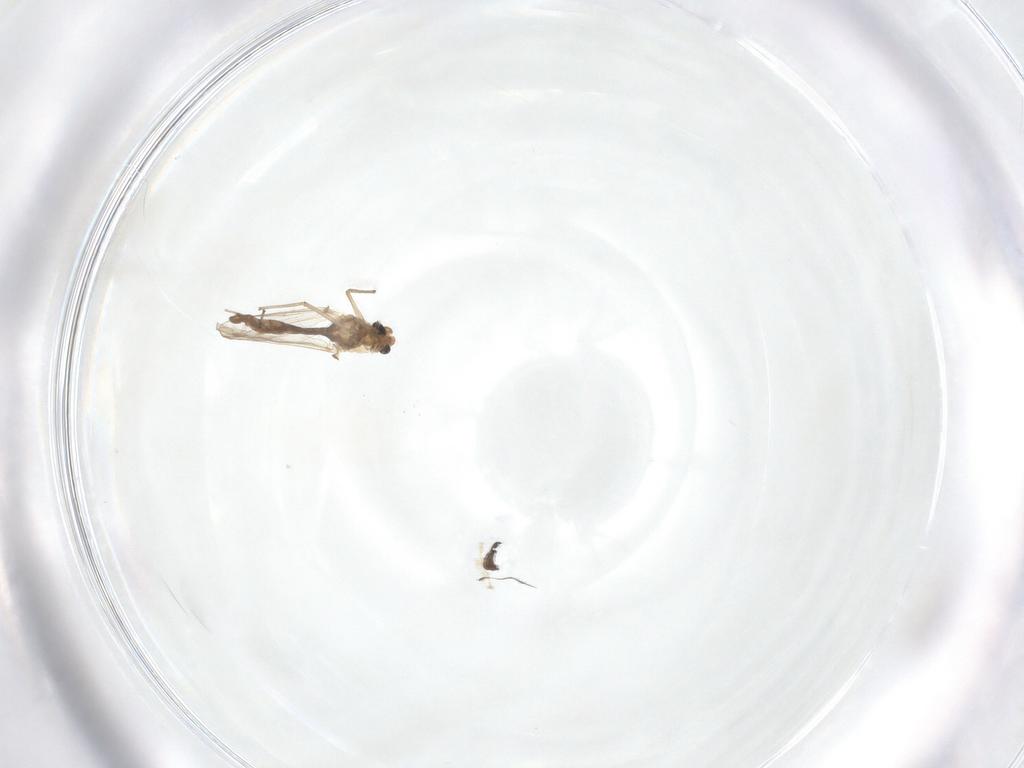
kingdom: Animalia
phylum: Arthropoda
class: Insecta
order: Diptera
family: Chironomidae
